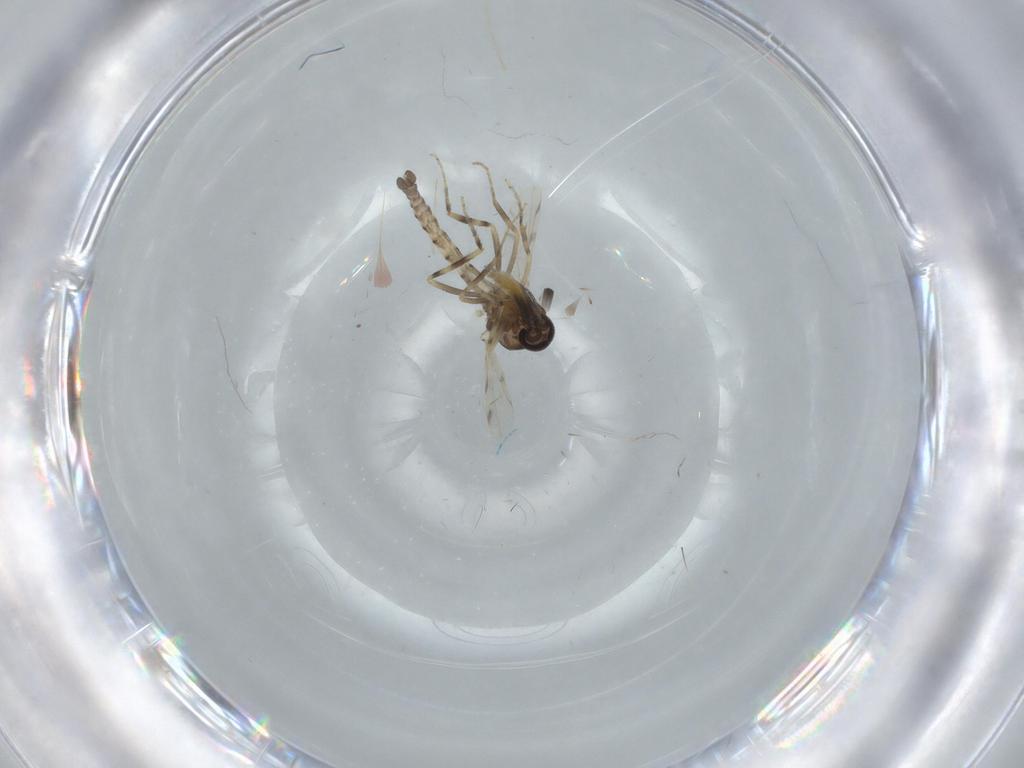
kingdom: Animalia
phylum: Arthropoda
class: Insecta
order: Diptera
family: Ceratopogonidae
